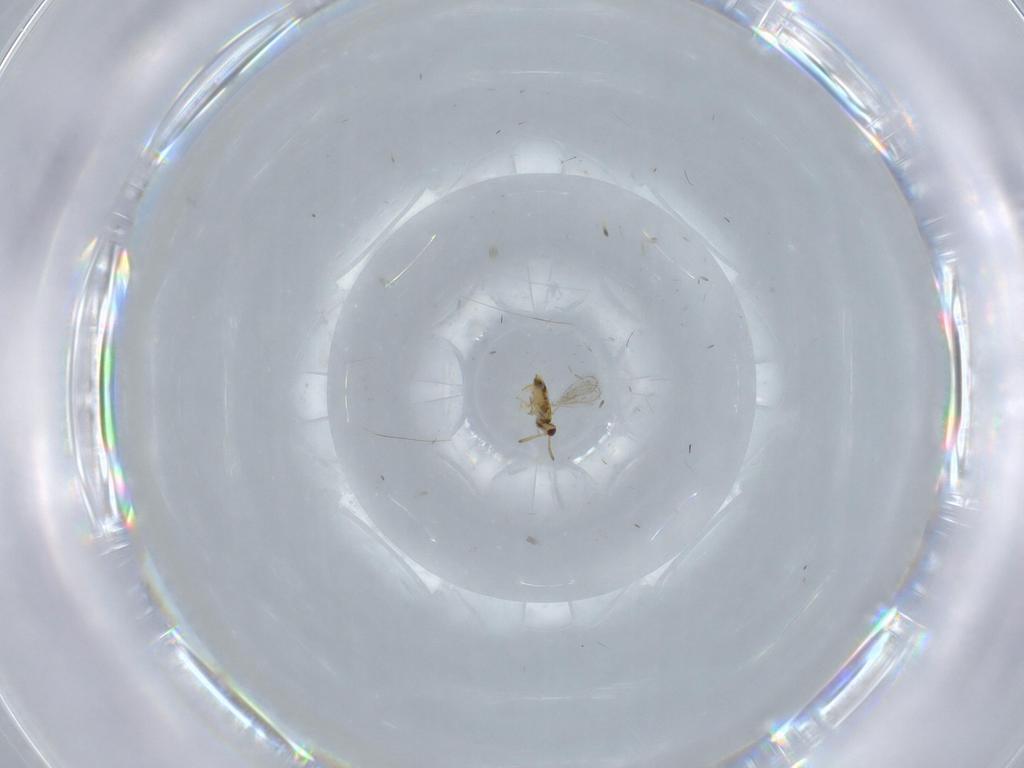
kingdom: Animalia
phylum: Arthropoda
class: Insecta
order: Hymenoptera
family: Aphelinidae
